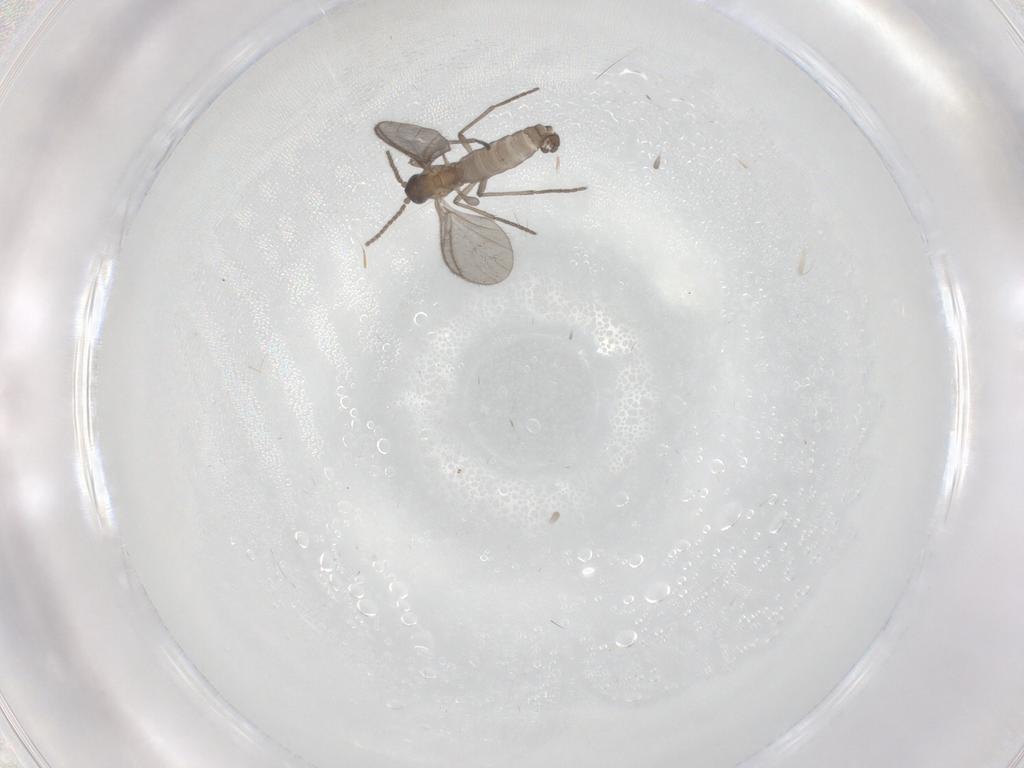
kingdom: Animalia
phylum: Arthropoda
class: Insecta
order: Diptera
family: Sciaridae
